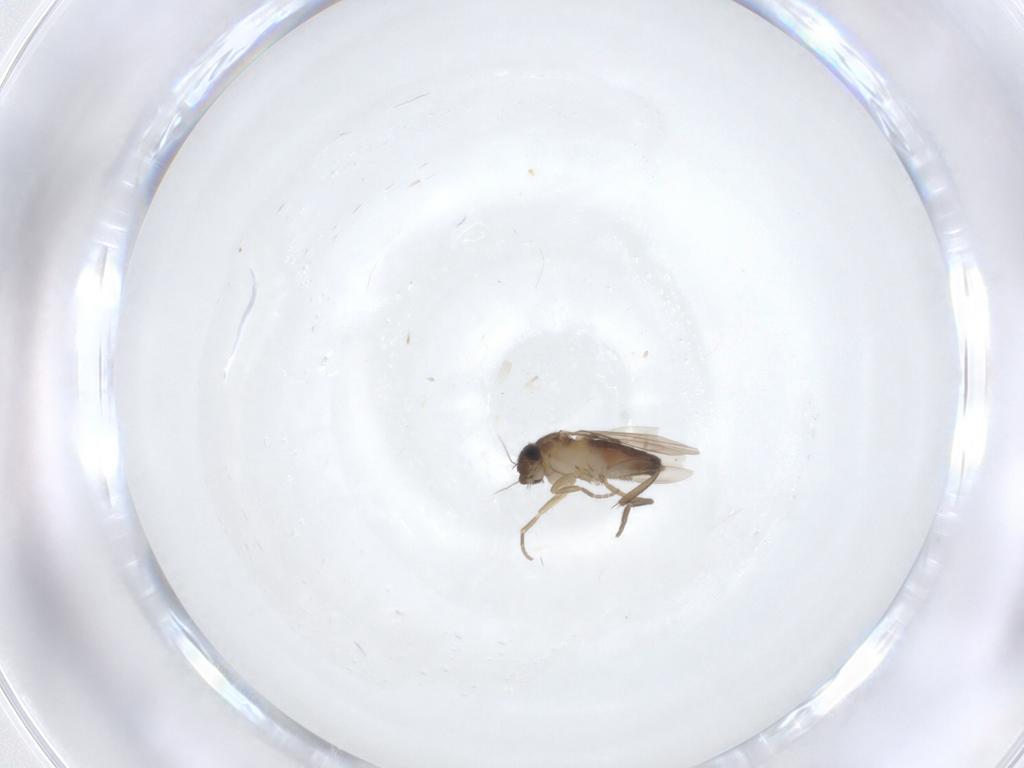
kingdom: Animalia
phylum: Arthropoda
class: Insecta
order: Diptera
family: Phoridae
